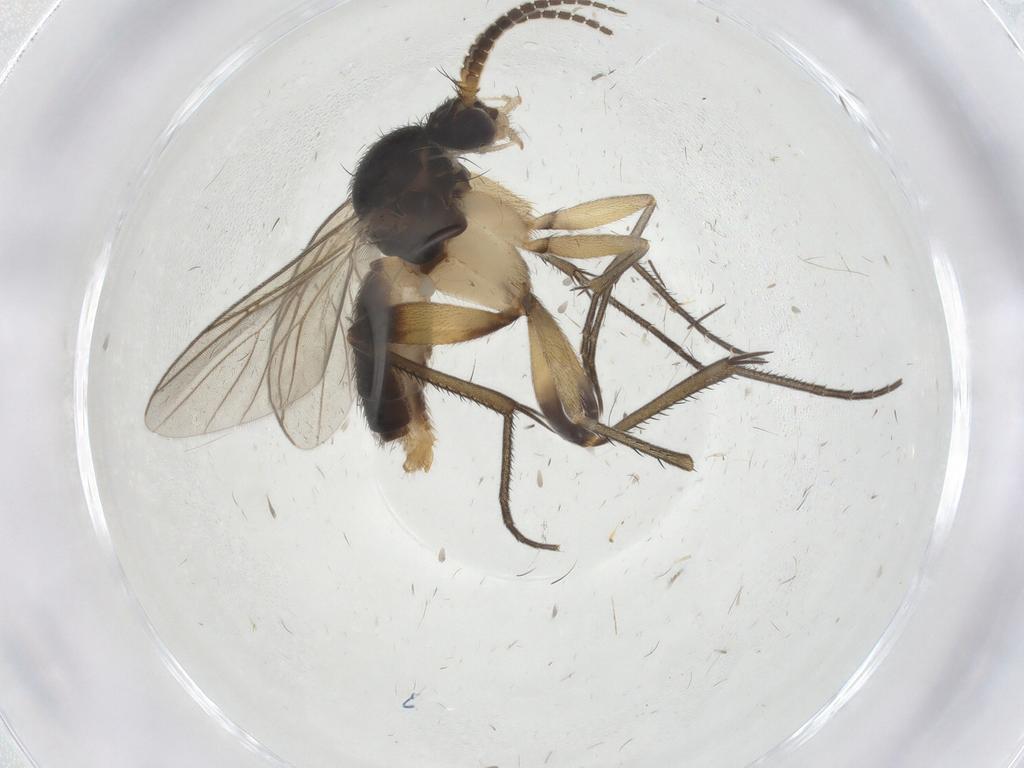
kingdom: Animalia
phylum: Arthropoda
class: Insecta
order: Diptera
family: Mycetophilidae
